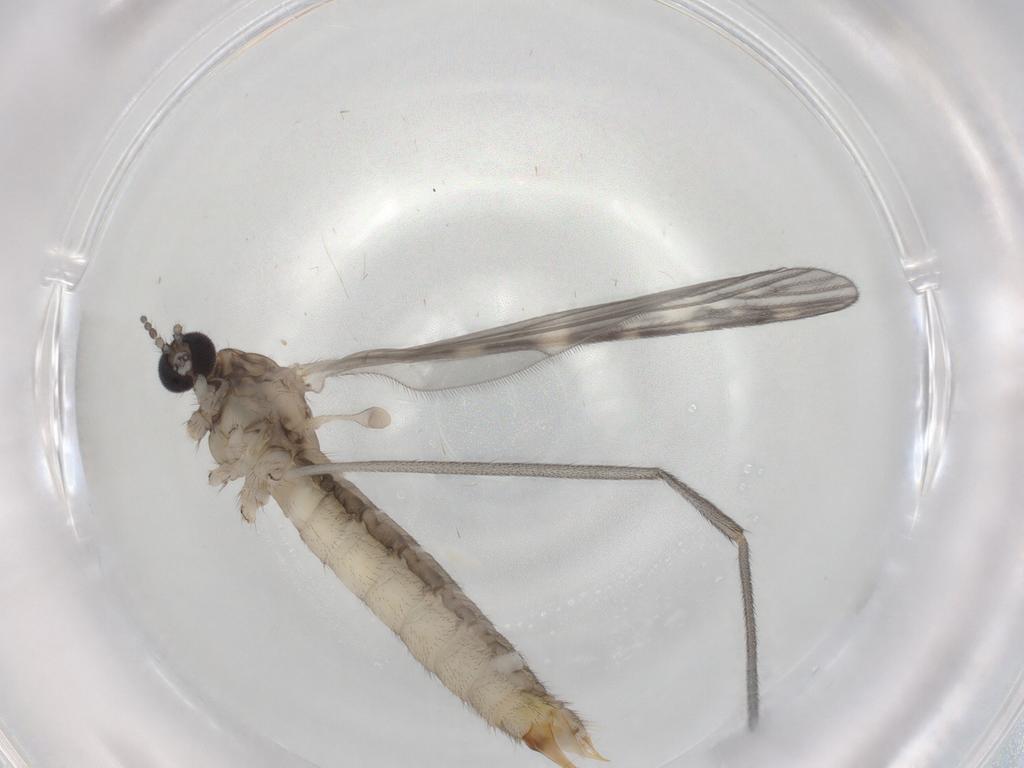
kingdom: Animalia
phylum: Arthropoda
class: Insecta
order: Diptera
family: Limoniidae
